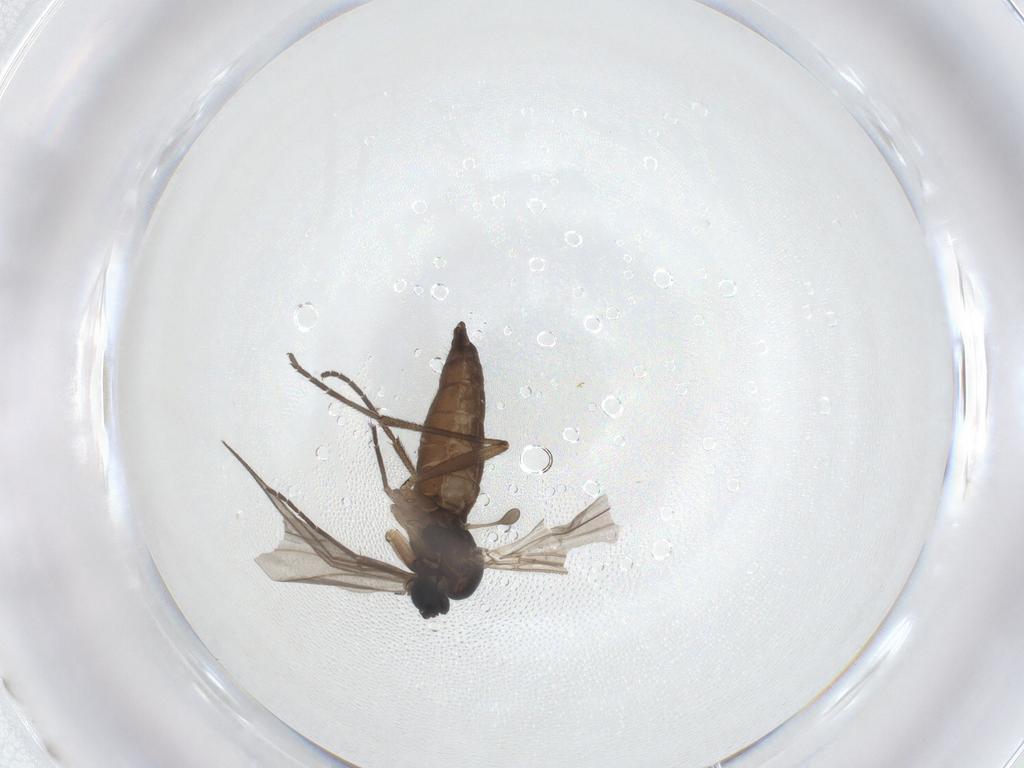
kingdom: Animalia
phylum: Arthropoda
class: Insecta
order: Diptera
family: Sciaridae
